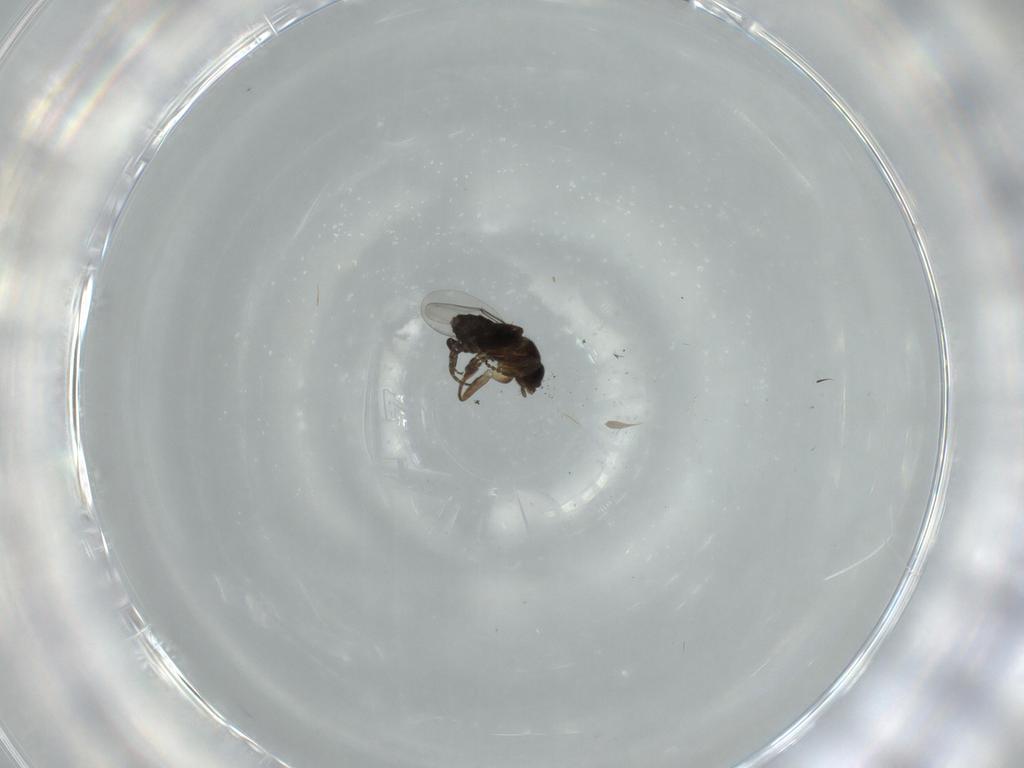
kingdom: Animalia
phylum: Arthropoda
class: Insecta
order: Diptera
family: Phoridae
